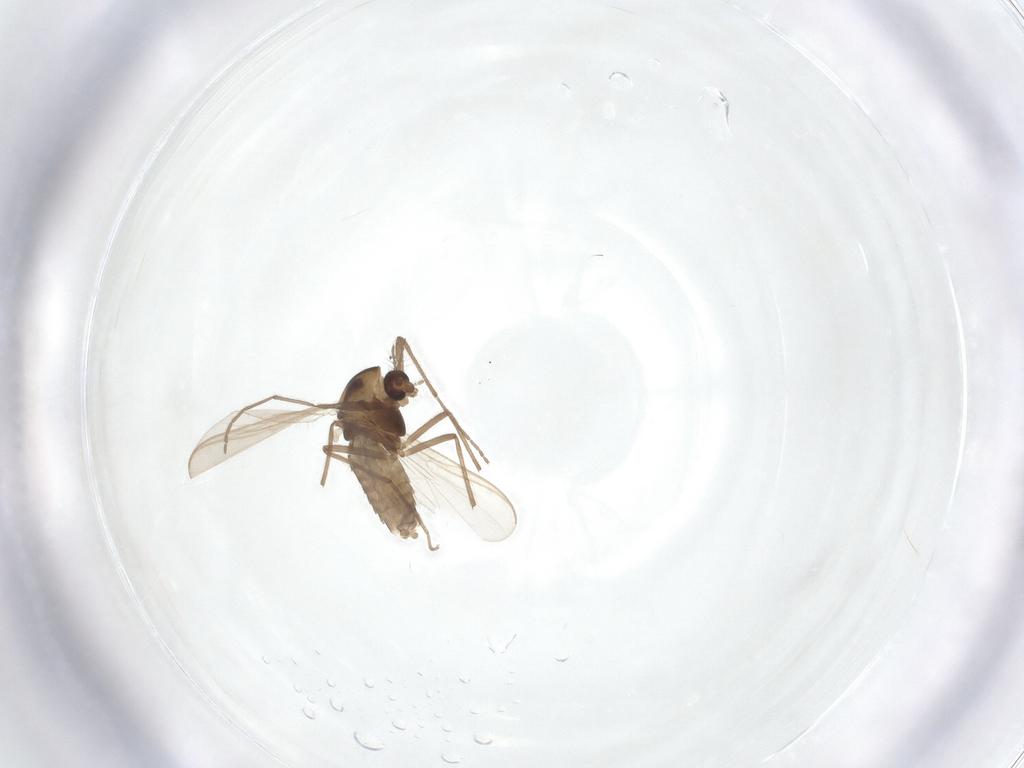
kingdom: Animalia
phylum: Arthropoda
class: Insecta
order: Diptera
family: Chironomidae
